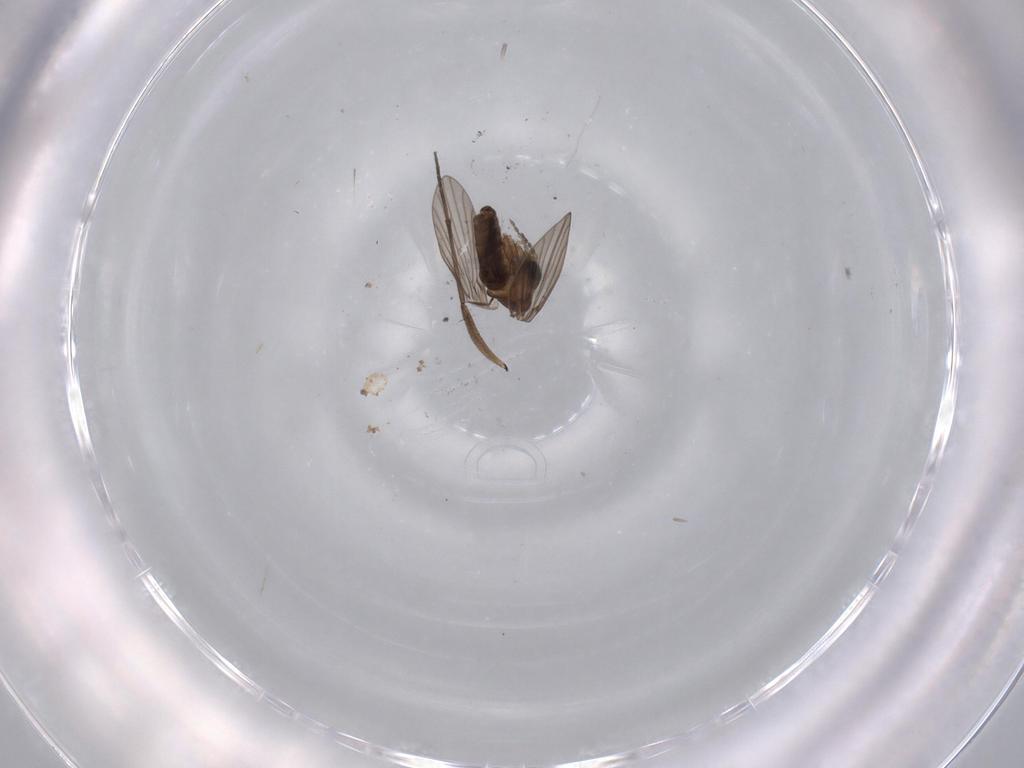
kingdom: Animalia
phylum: Arthropoda
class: Insecta
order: Diptera
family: Sciaridae
